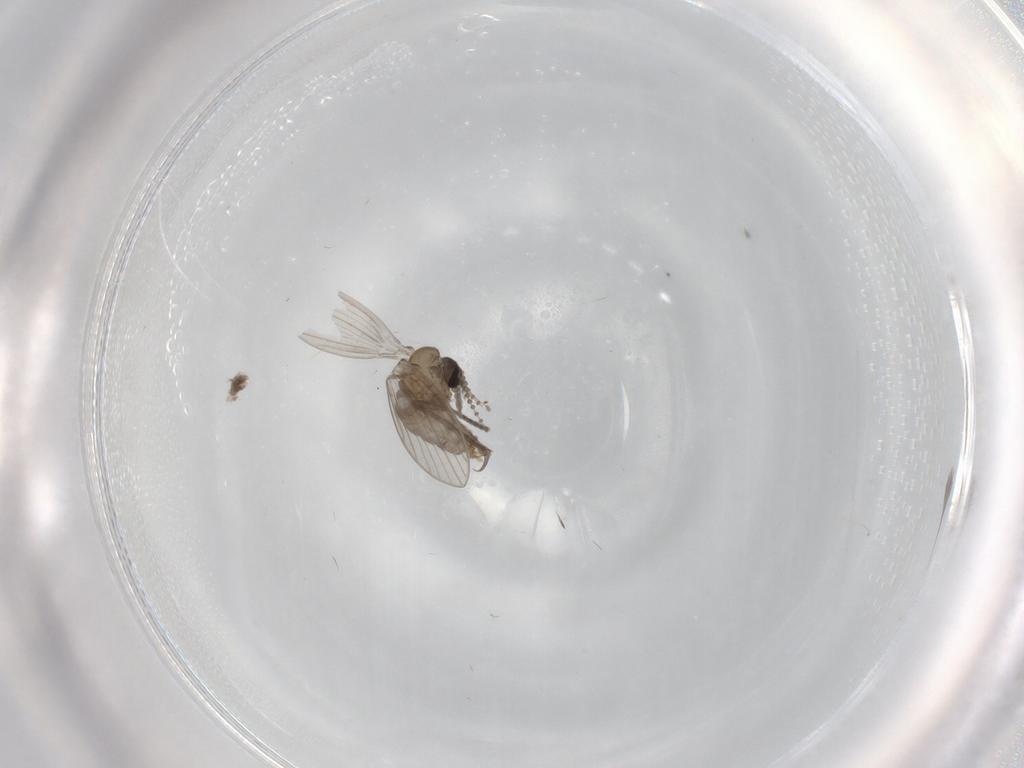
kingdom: Animalia
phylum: Arthropoda
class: Insecta
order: Diptera
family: Psychodidae
